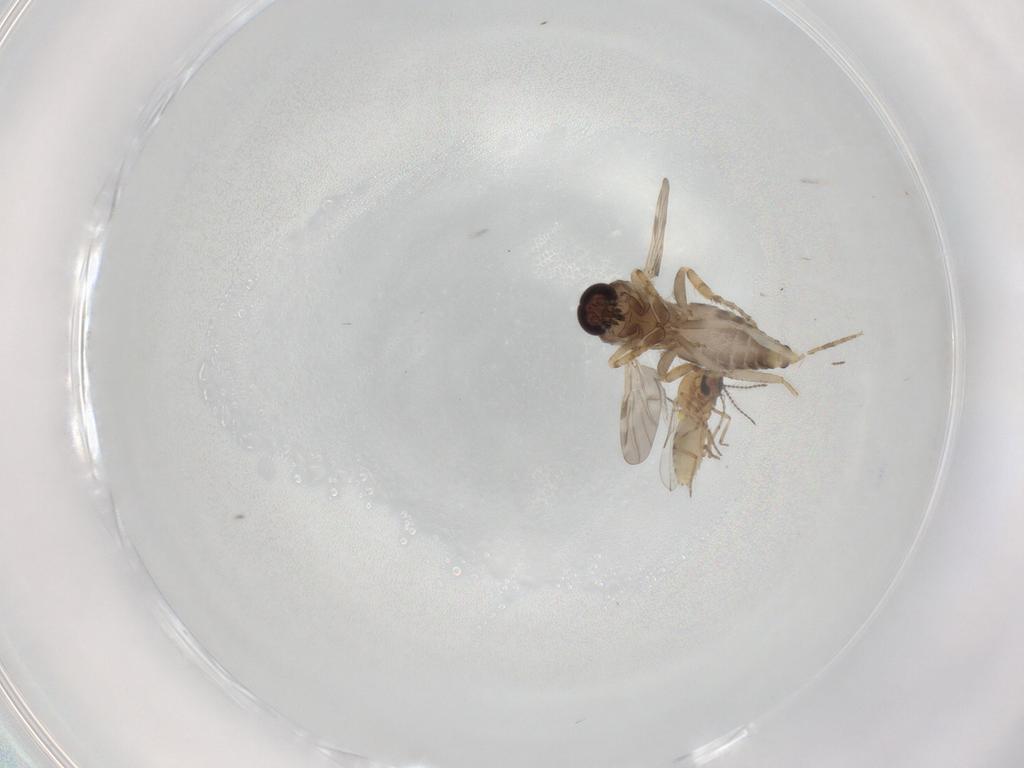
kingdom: Animalia
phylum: Arthropoda
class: Insecta
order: Diptera
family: Ceratopogonidae
